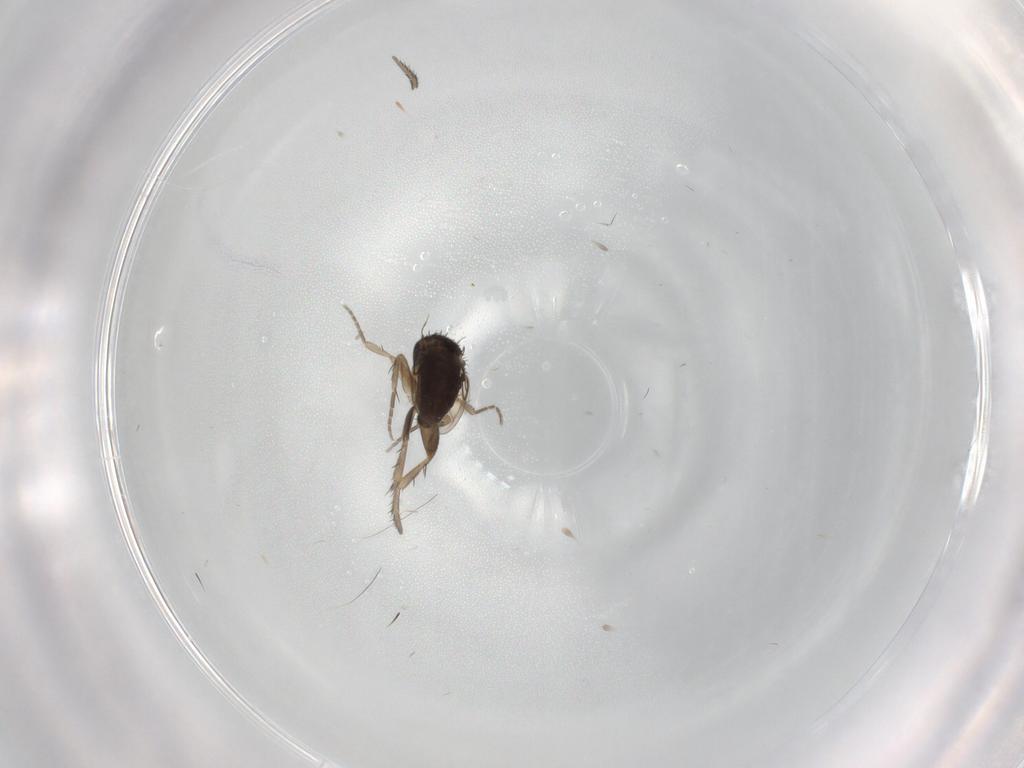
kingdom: Animalia
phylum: Arthropoda
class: Insecta
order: Diptera
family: Phoridae
